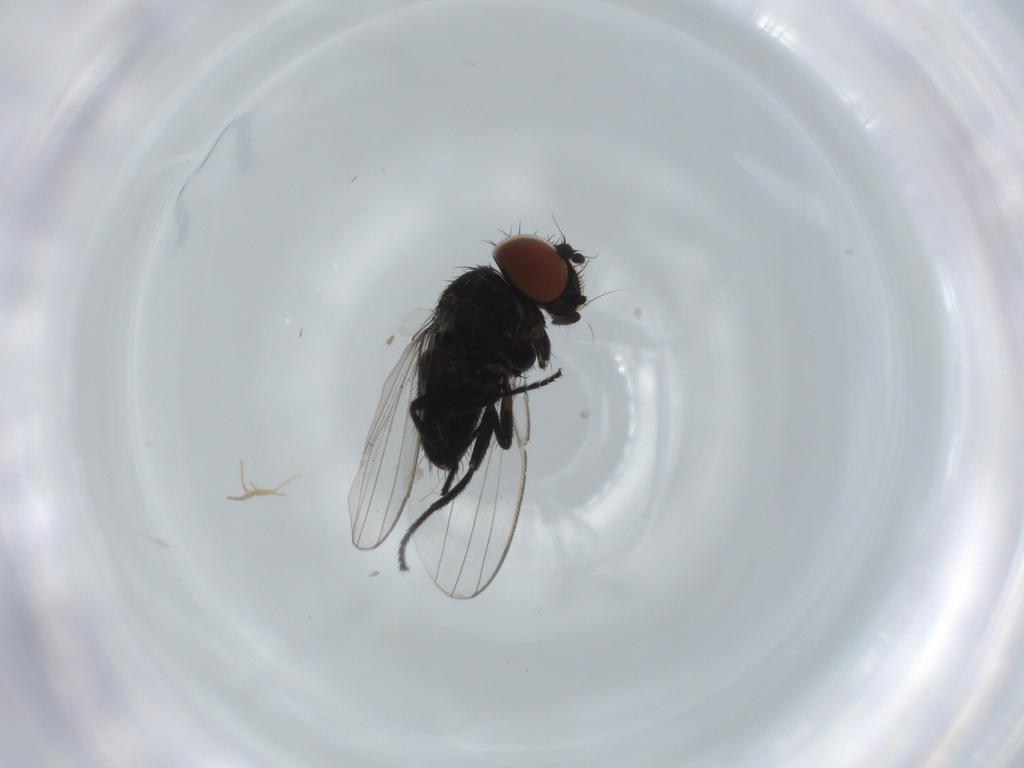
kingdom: Animalia
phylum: Arthropoda
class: Insecta
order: Diptera
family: Milichiidae
